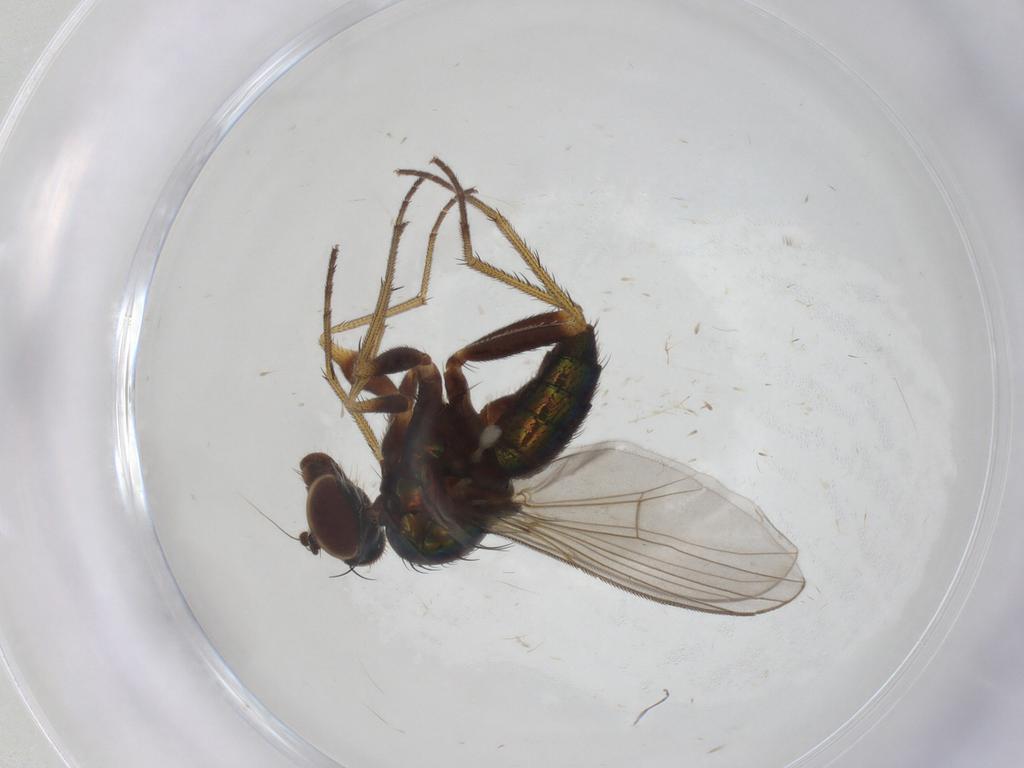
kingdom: Animalia
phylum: Arthropoda
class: Insecta
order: Diptera
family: Dolichopodidae
